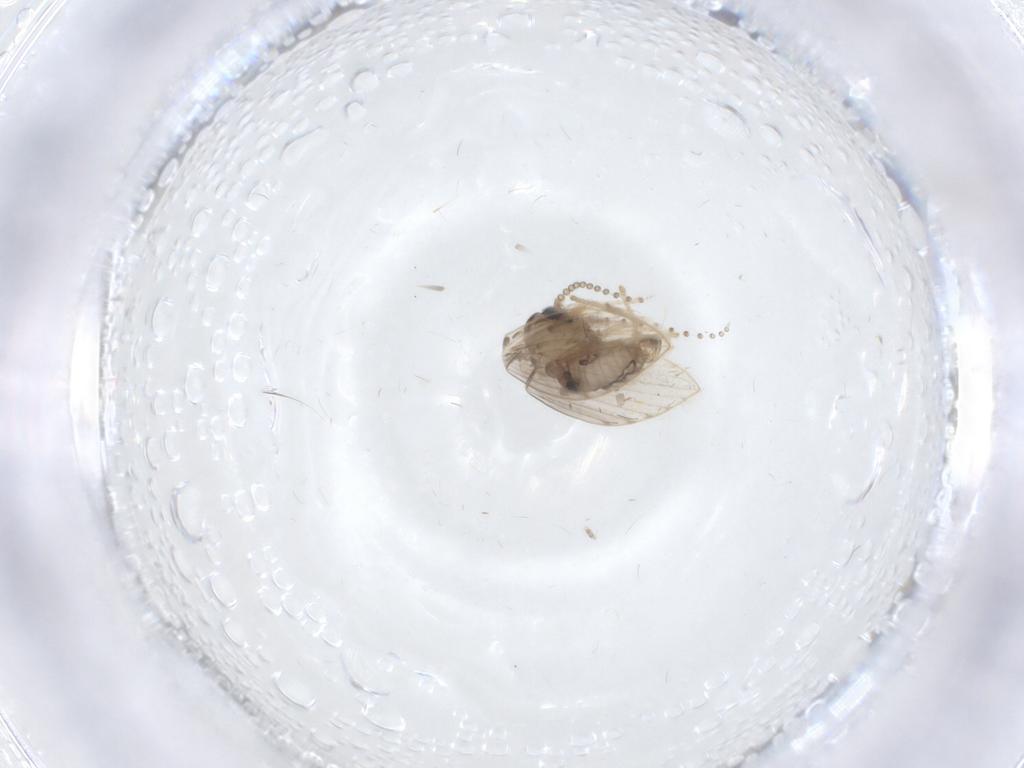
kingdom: Animalia
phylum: Arthropoda
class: Insecta
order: Diptera
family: Psychodidae
